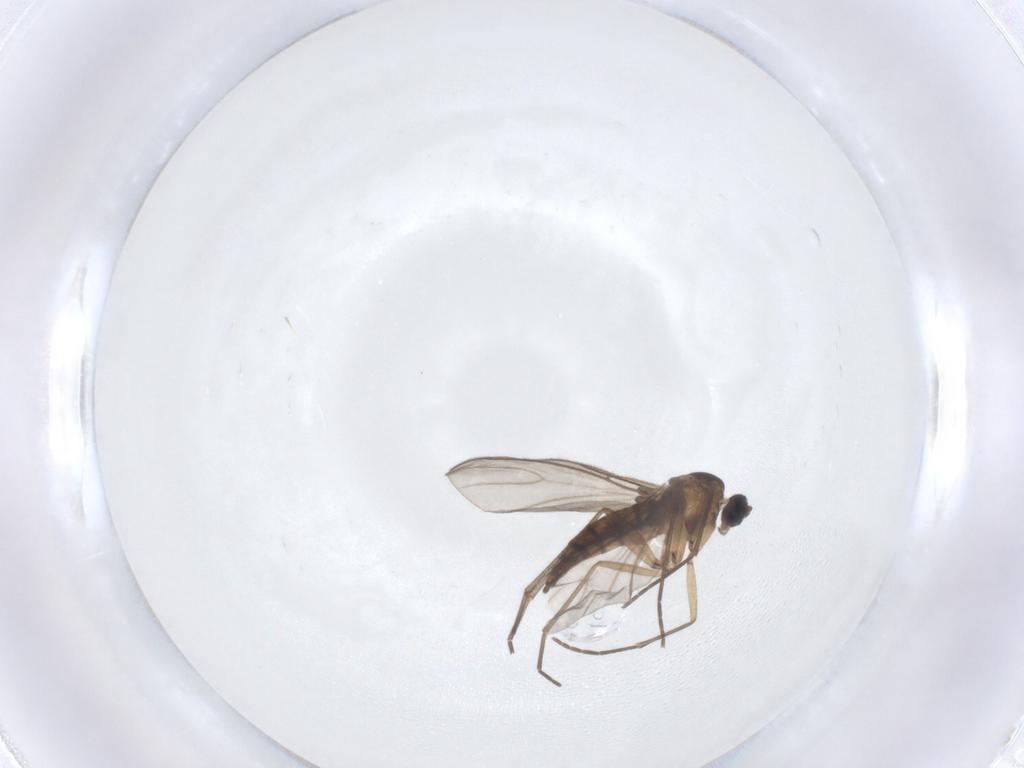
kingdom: Animalia
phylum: Arthropoda
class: Insecta
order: Diptera
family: Sciaridae
